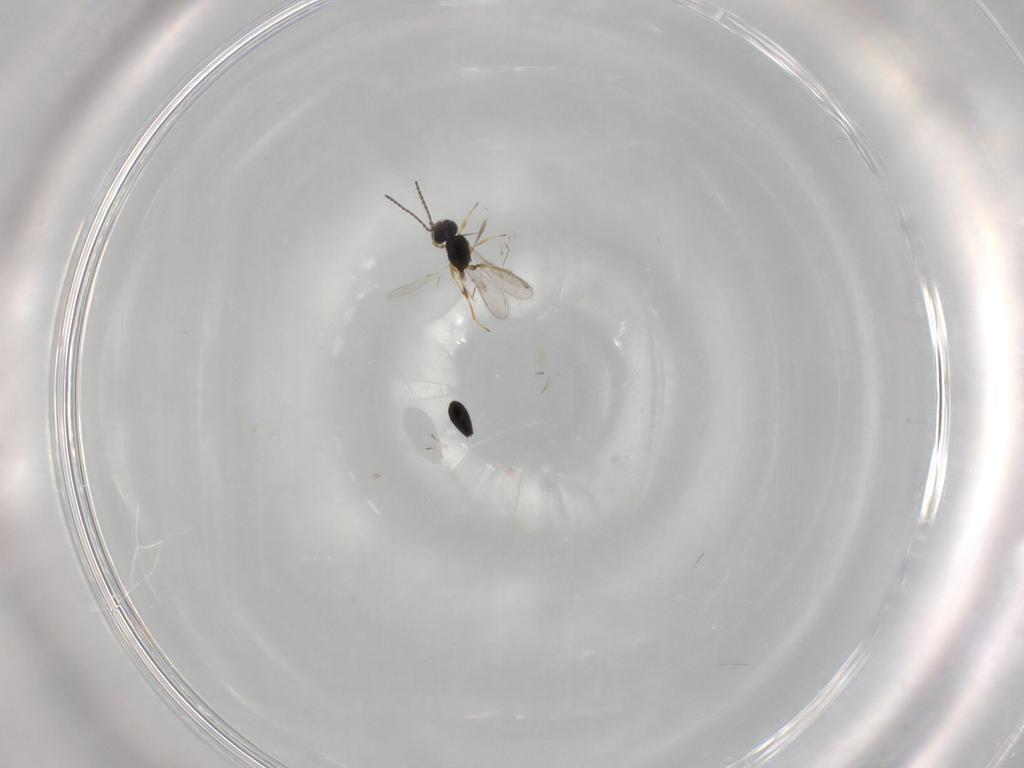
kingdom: Animalia
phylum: Arthropoda
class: Insecta
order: Hymenoptera
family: Scelionidae
